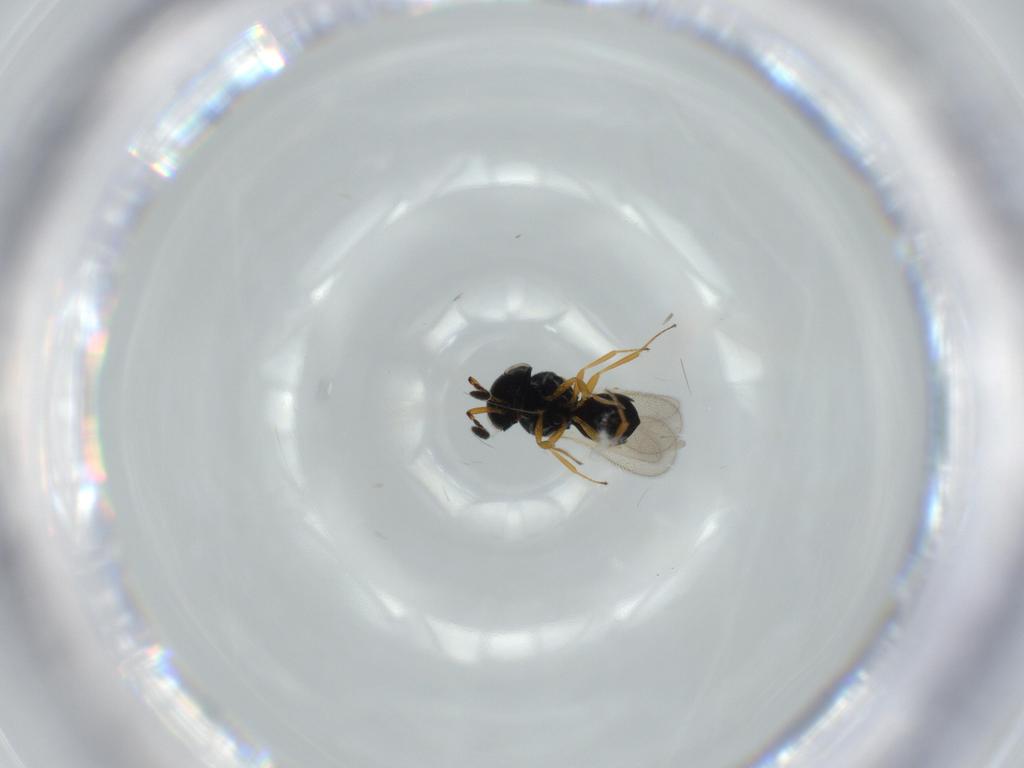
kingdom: Animalia
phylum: Arthropoda
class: Insecta
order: Hymenoptera
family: Scelionidae
